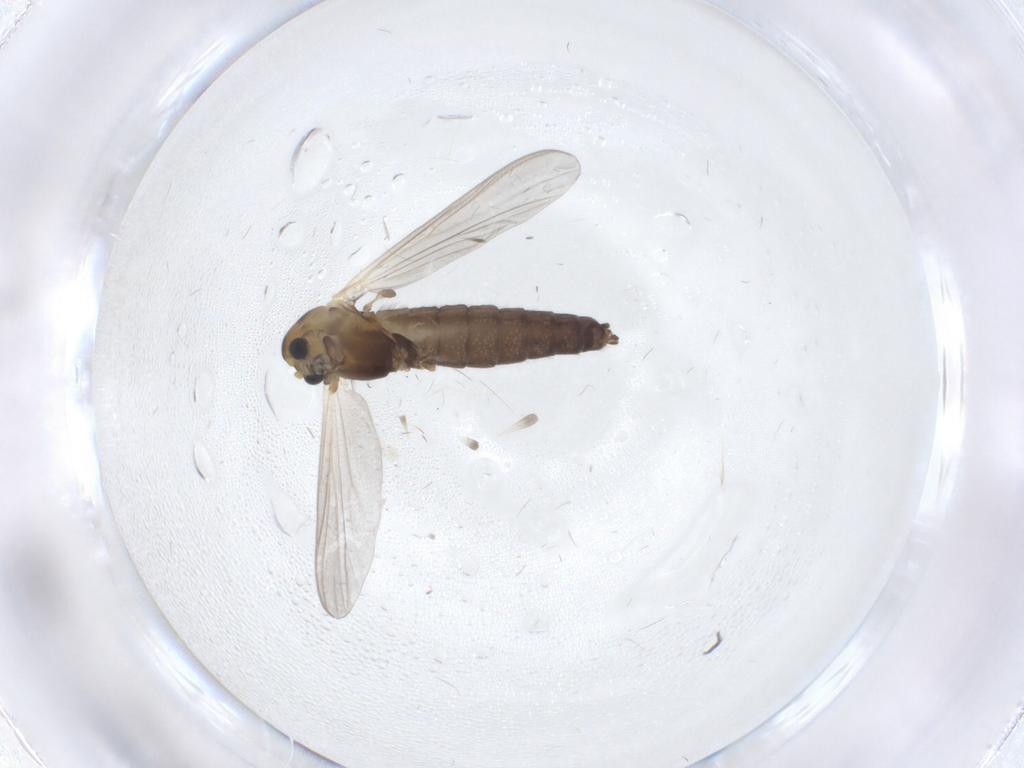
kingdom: Animalia
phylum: Arthropoda
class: Insecta
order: Diptera
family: Chironomidae
